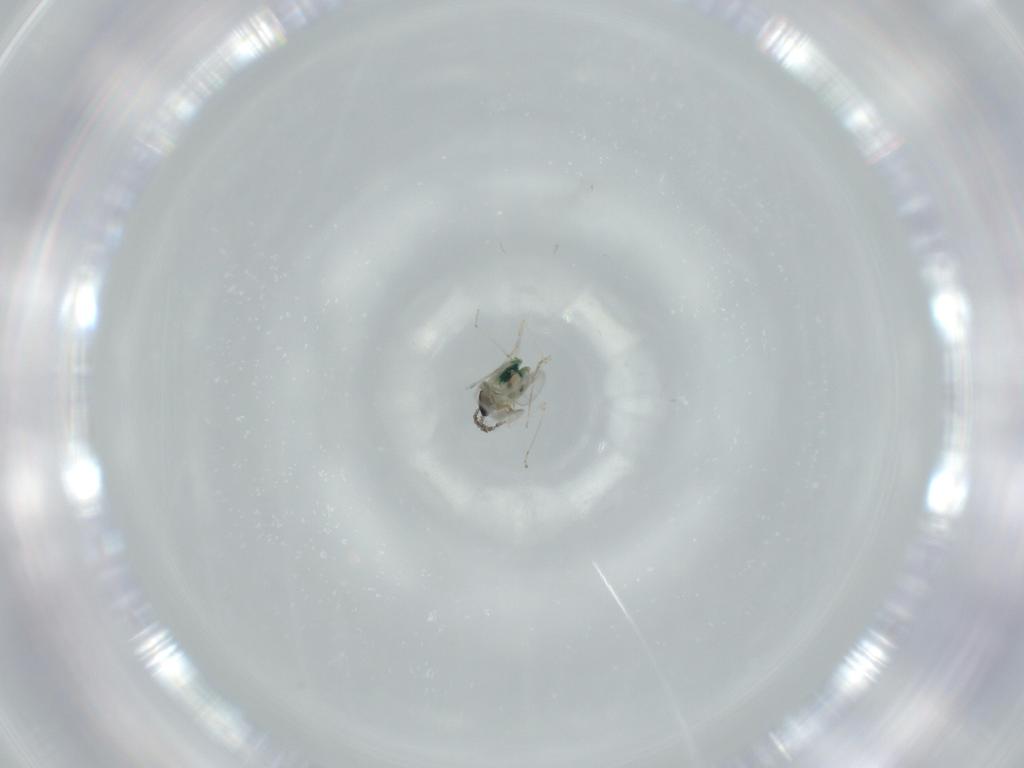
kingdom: Animalia
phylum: Arthropoda
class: Insecta
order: Diptera
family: Cecidomyiidae
